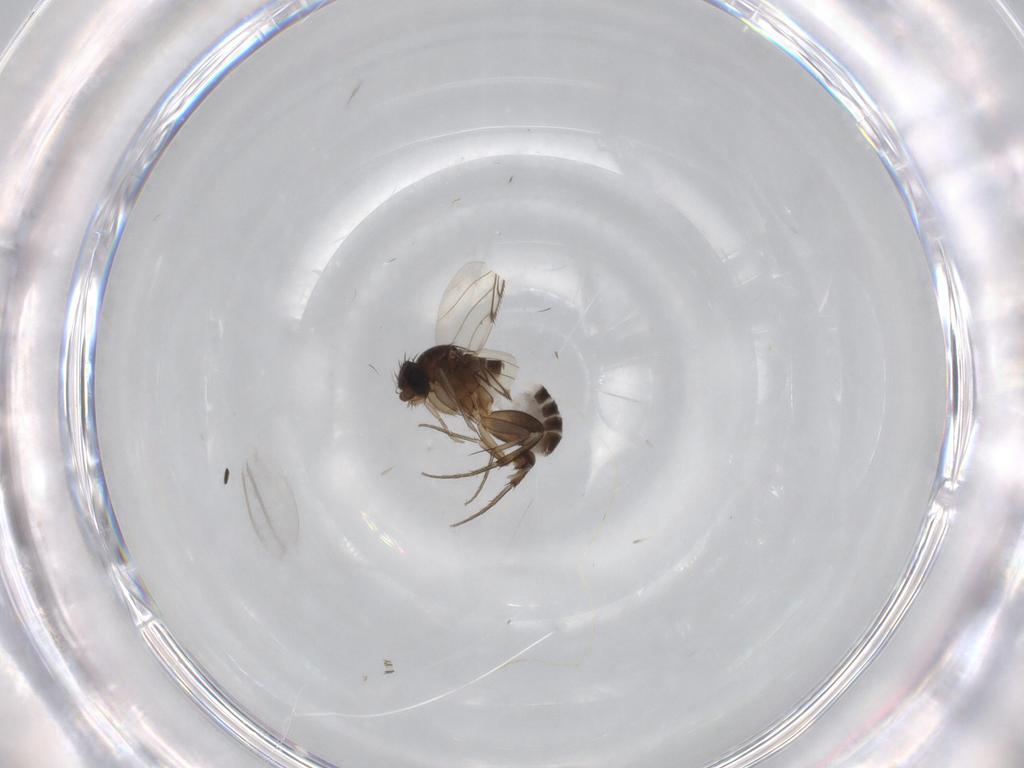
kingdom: Animalia
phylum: Arthropoda
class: Insecta
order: Diptera
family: Phoridae
